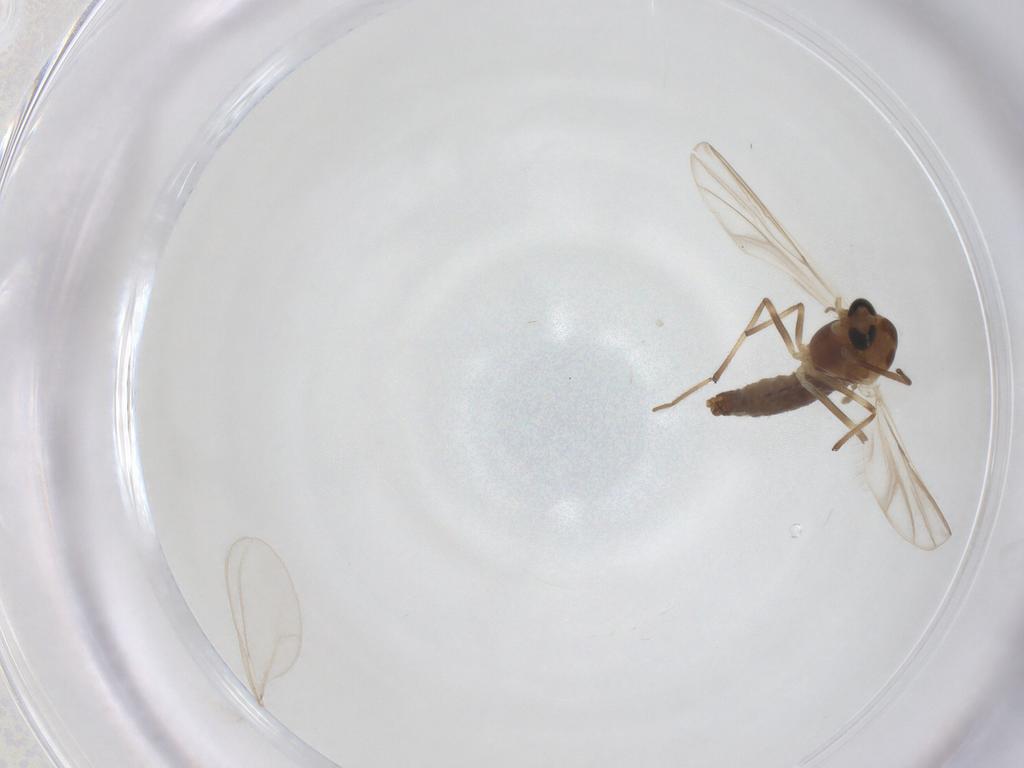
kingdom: Animalia
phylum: Arthropoda
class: Insecta
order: Diptera
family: Chironomidae
